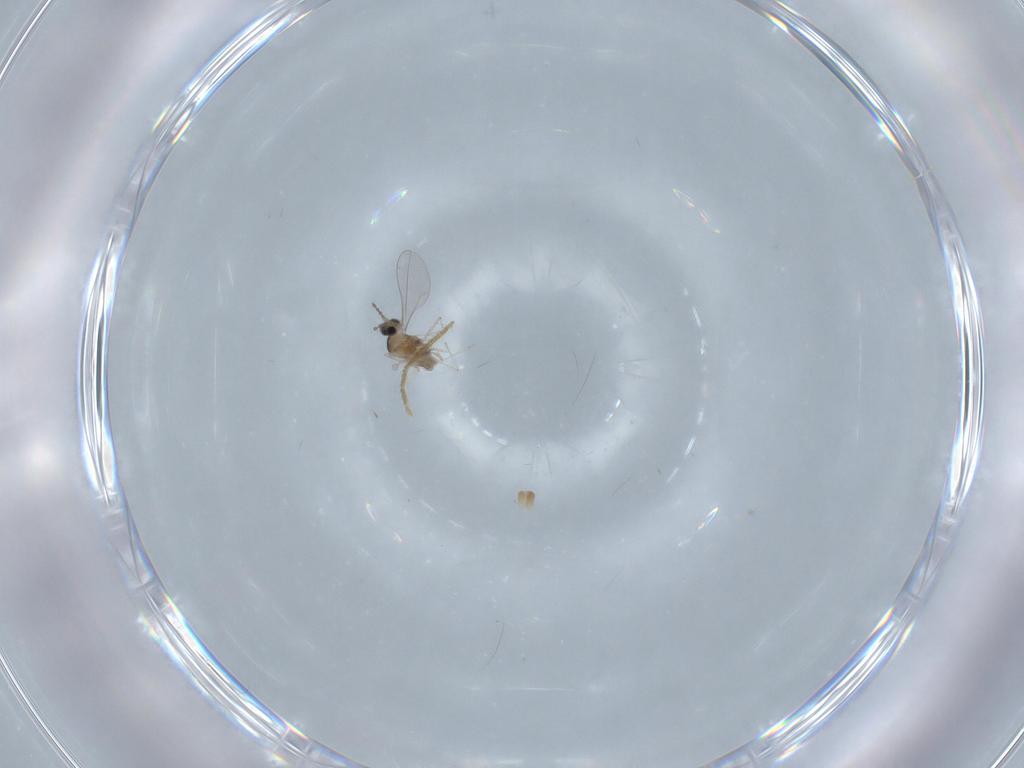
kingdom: Animalia
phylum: Arthropoda
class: Insecta
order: Diptera
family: Chironomidae
